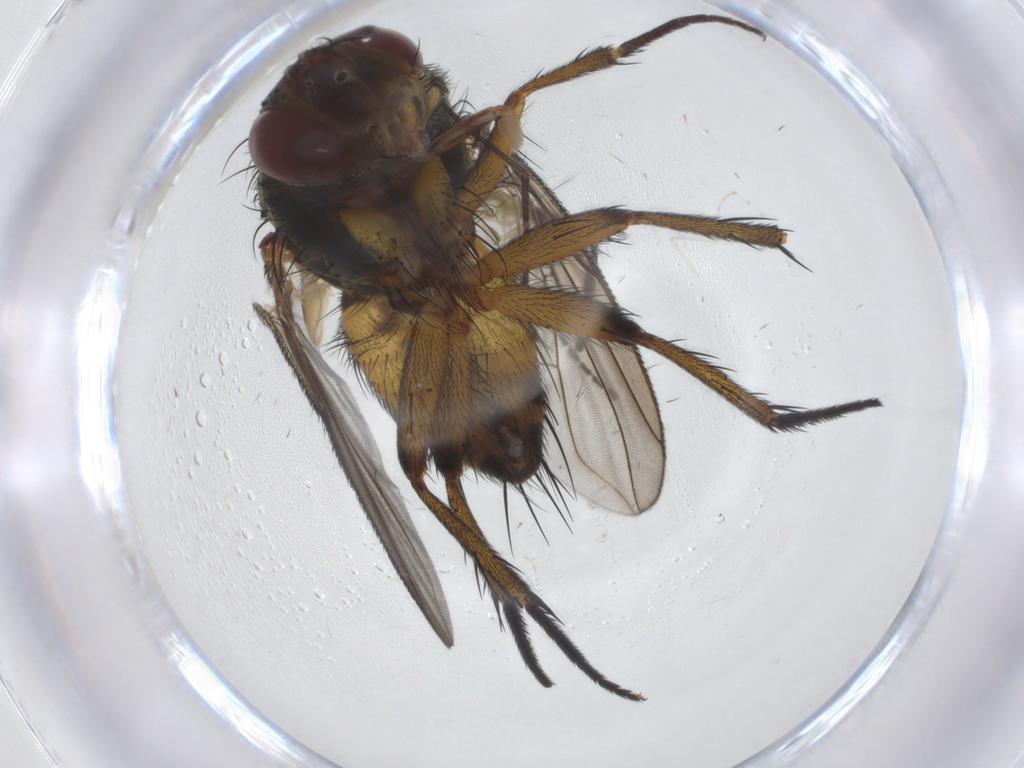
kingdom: Animalia
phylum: Arthropoda
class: Insecta
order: Diptera
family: Empididae
